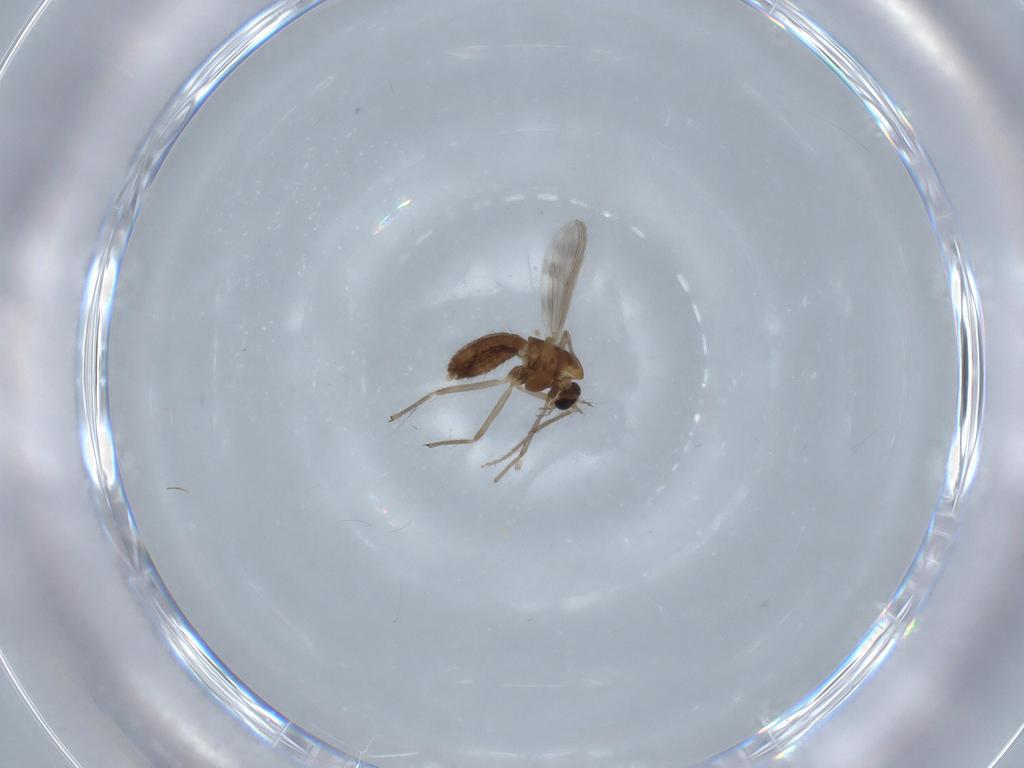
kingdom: Animalia
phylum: Arthropoda
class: Insecta
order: Diptera
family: Chironomidae
